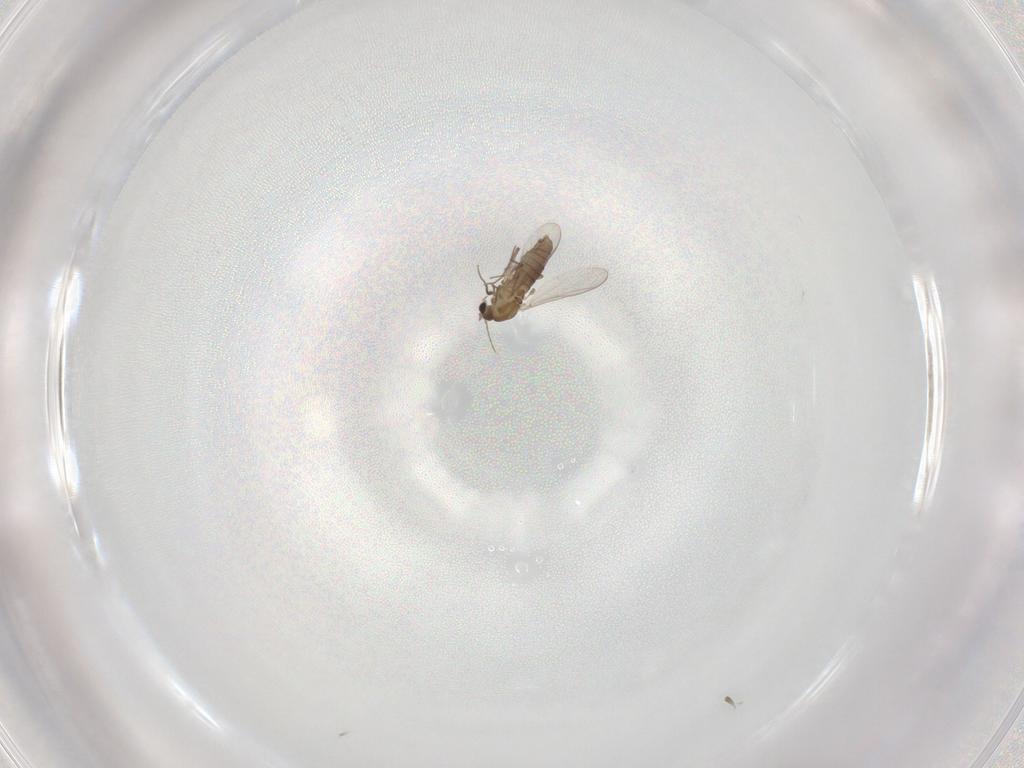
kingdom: Animalia
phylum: Arthropoda
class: Insecta
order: Diptera
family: Chironomidae
